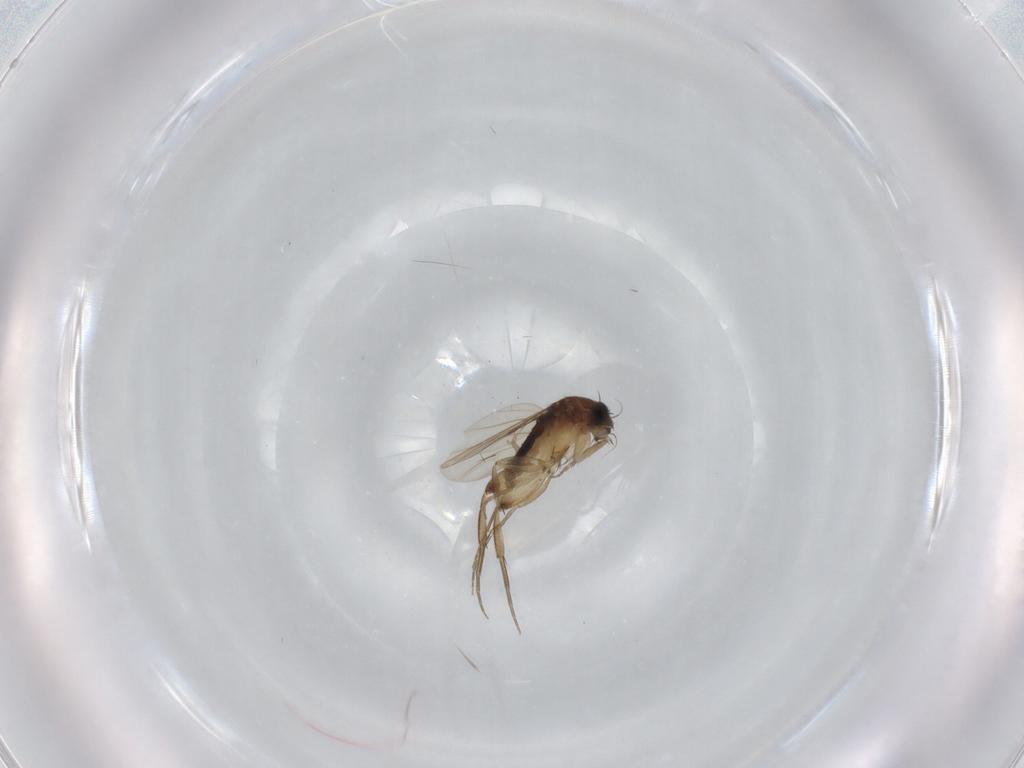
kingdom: Animalia
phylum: Arthropoda
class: Insecta
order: Diptera
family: Phoridae
